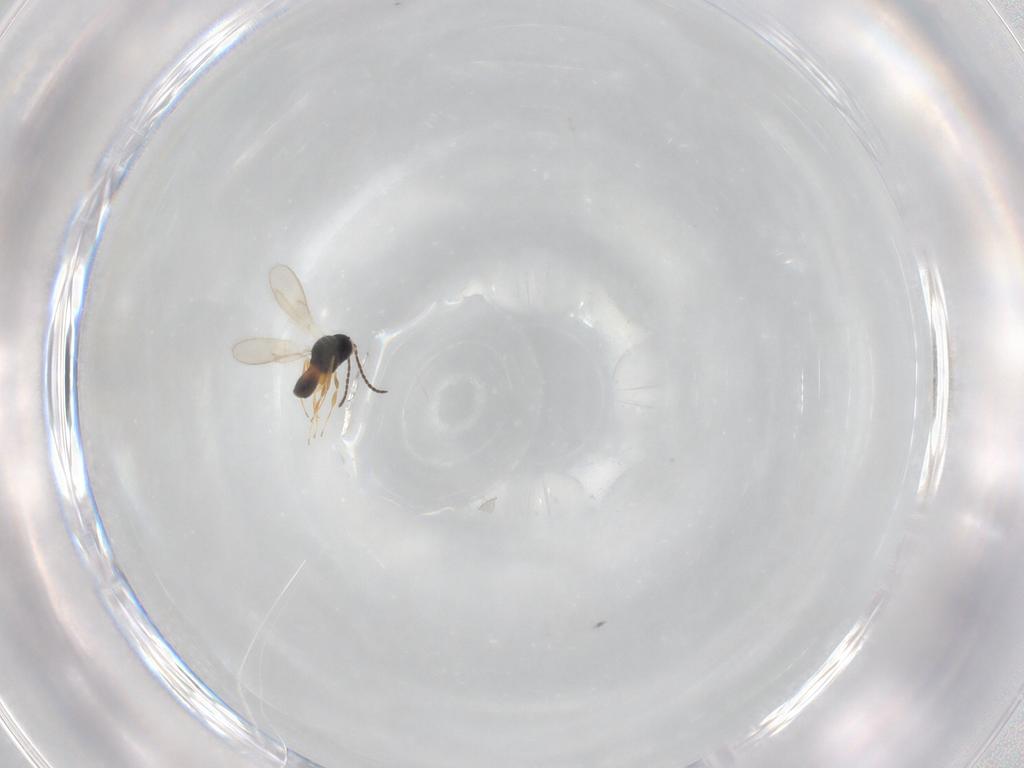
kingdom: Animalia
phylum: Arthropoda
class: Insecta
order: Hymenoptera
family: Scelionidae
